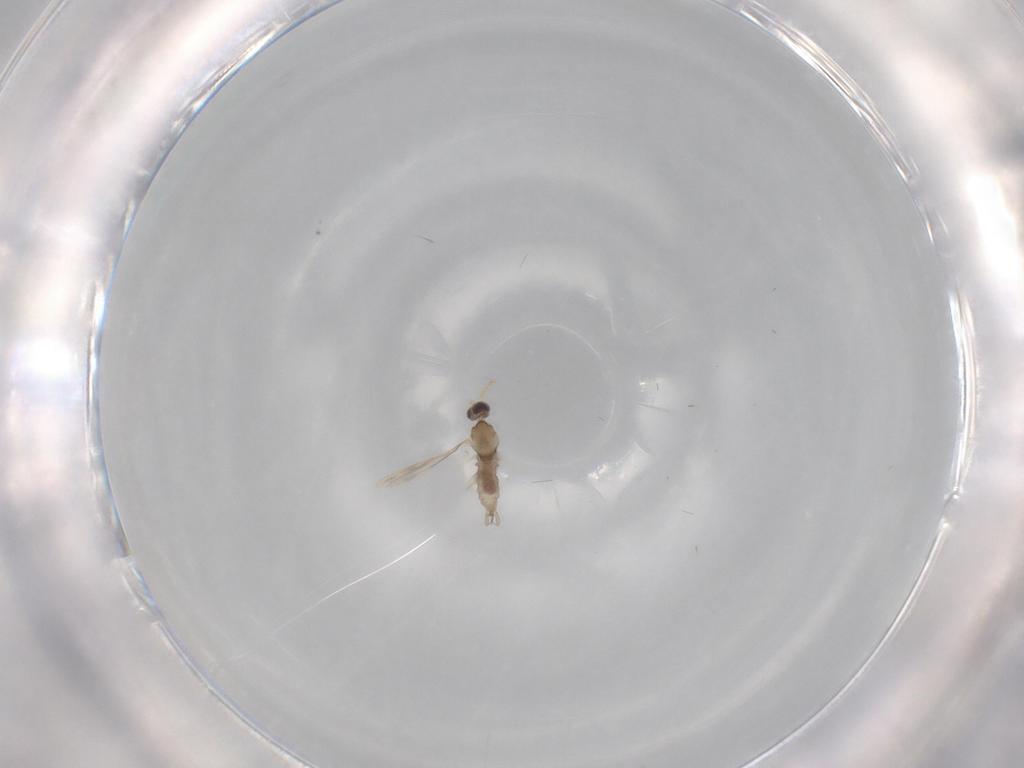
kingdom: Animalia
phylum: Arthropoda
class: Insecta
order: Diptera
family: Cecidomyiidae
